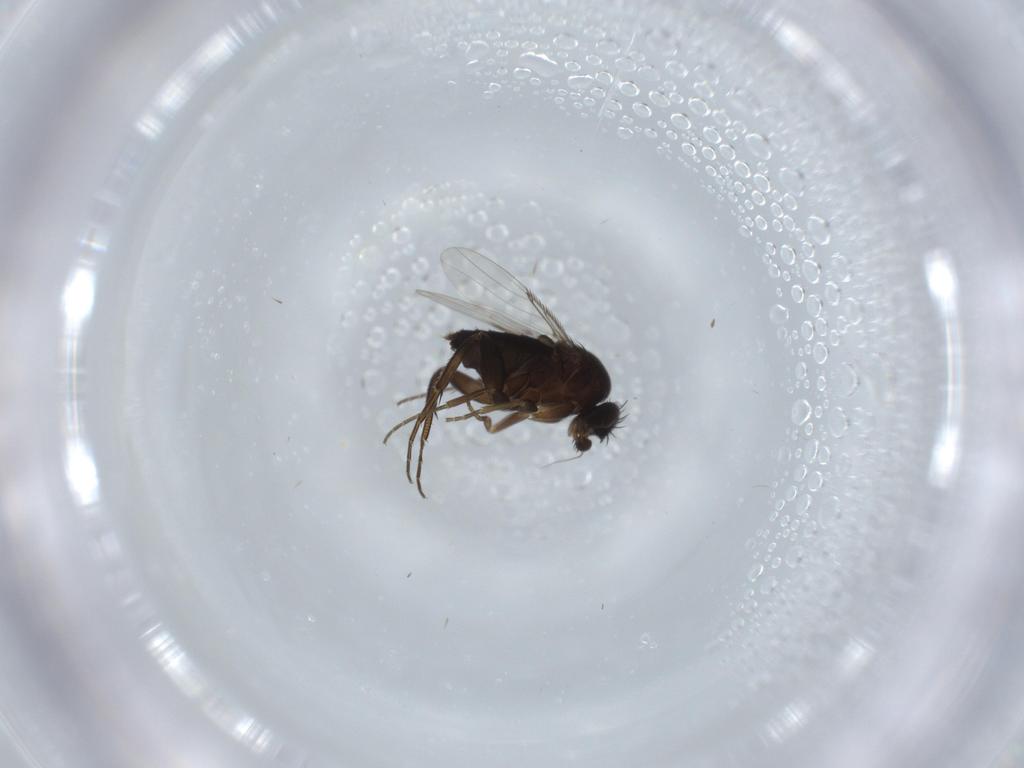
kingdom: Animalia
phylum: Arthropoda
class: Insecta
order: Diptera
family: Phoridae
